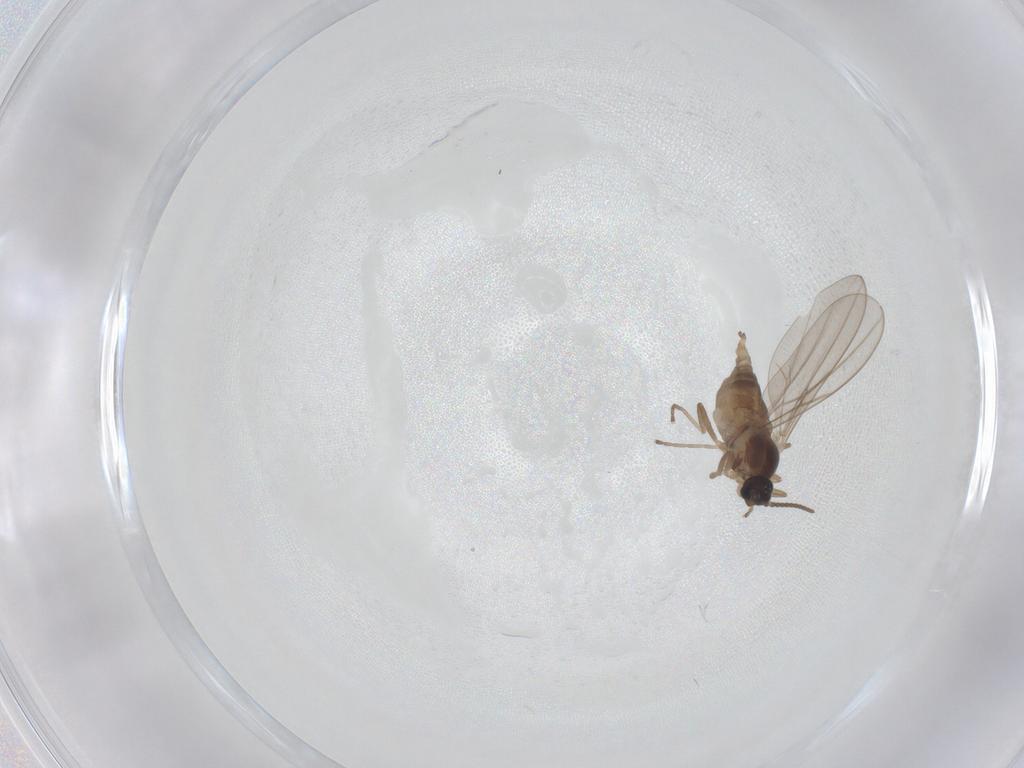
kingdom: Animalia
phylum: Arthropoda
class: Insecta
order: Diptera
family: Cecidomyiidae
